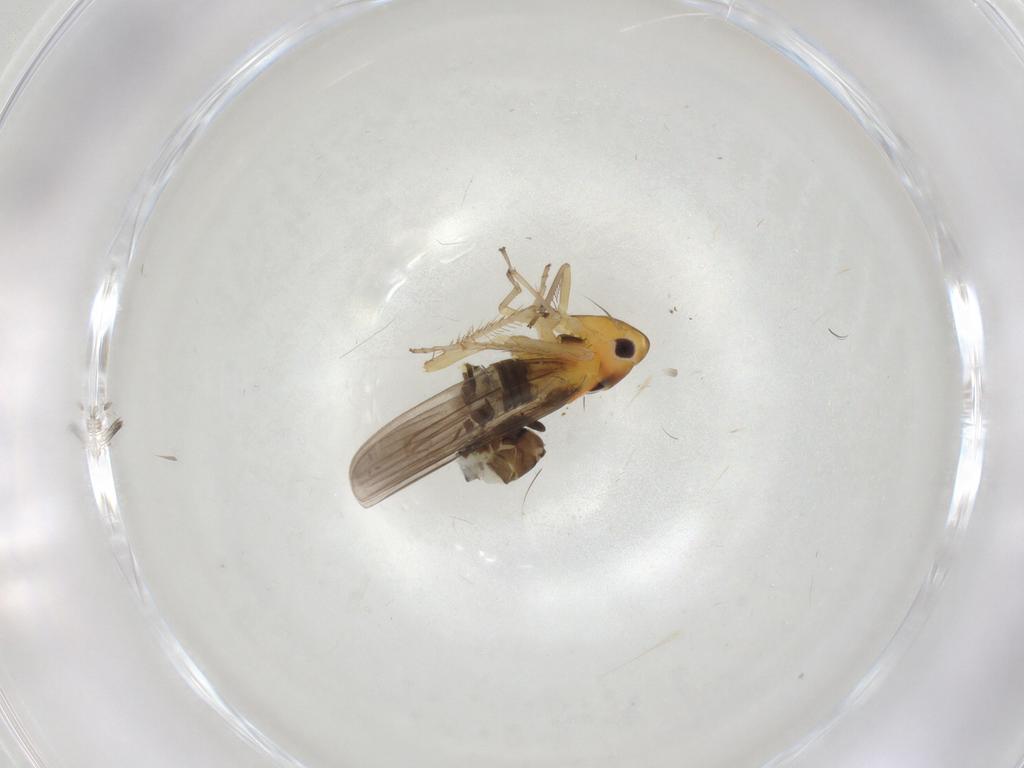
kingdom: Animalia
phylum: Arthropoda
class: Insecta
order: Hemiptera
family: Cicadellidae
